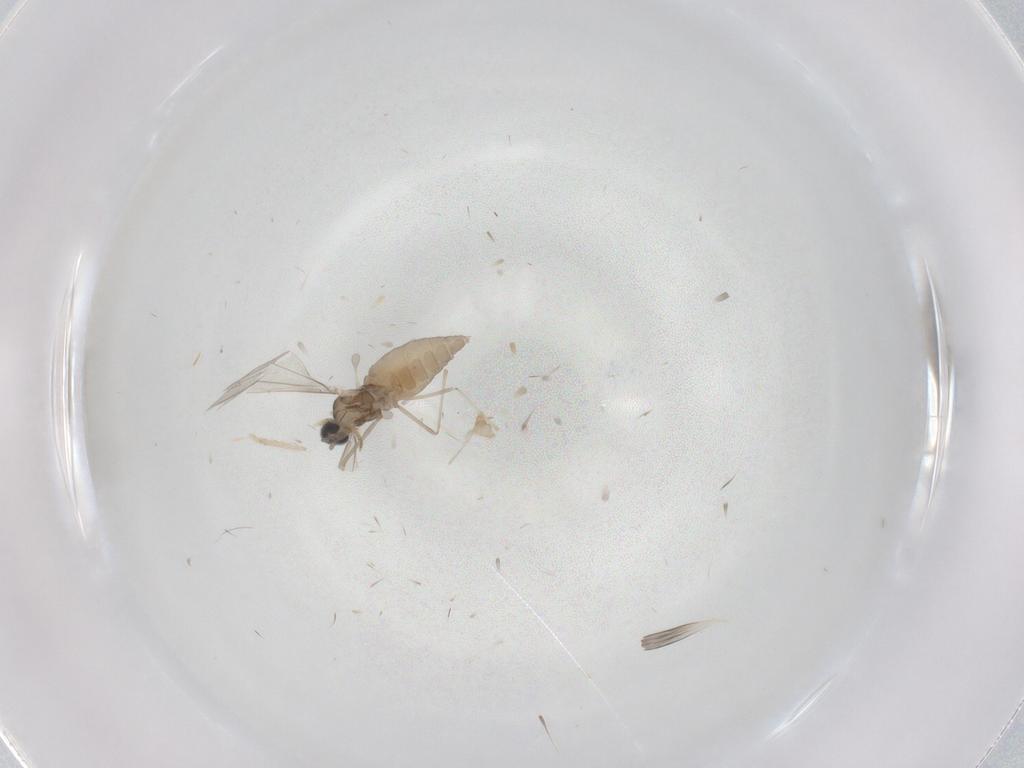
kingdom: Animalia
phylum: Arthropoda
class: Insecta
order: Diptera
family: Cecidomyiidae
